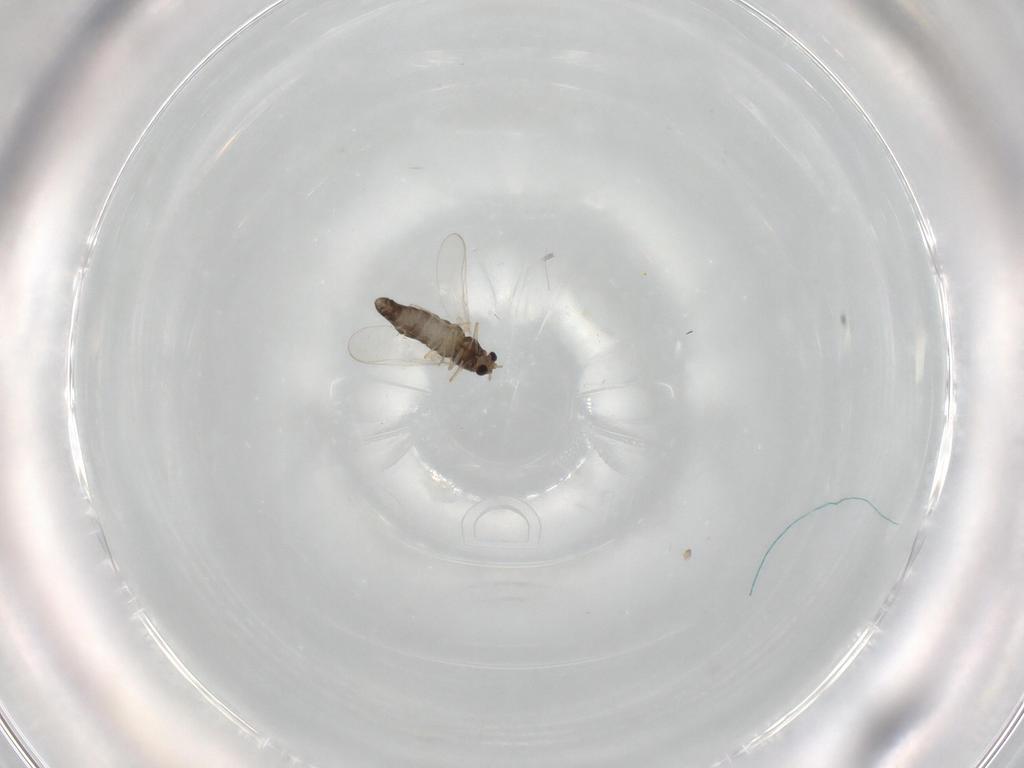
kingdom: Animalia
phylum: Arthropoda
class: Insecta
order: Diptera
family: Chironomidae
